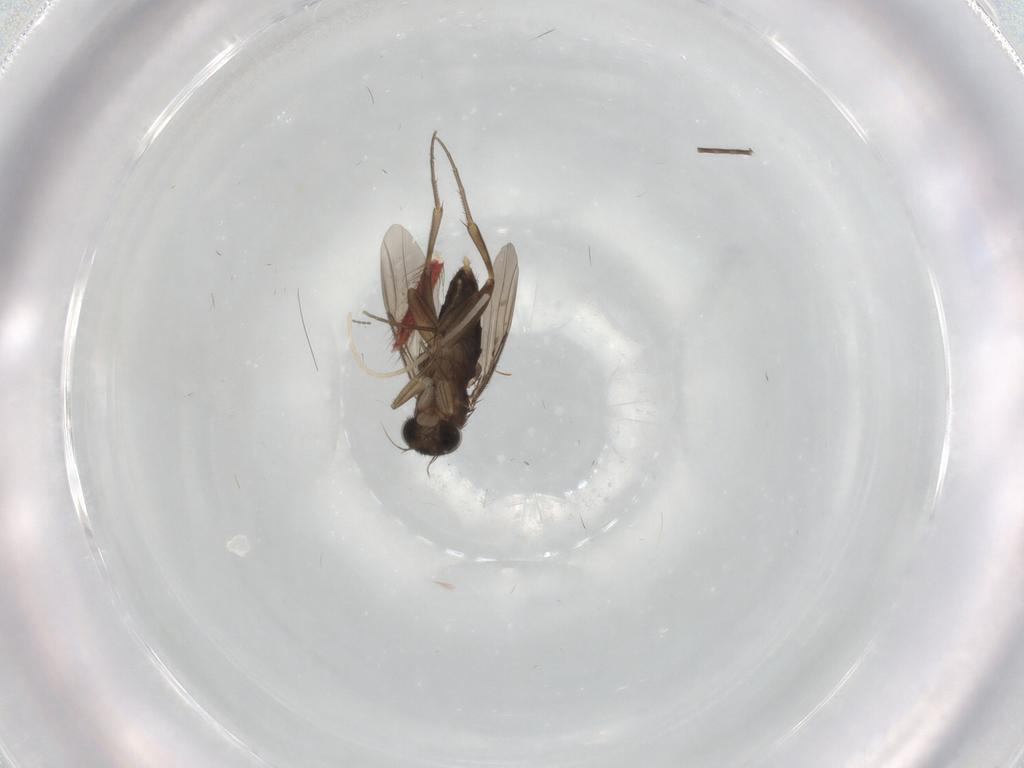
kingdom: Animalia
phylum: Arthropoda
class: Insecta
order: Diptera
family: Phoridae
